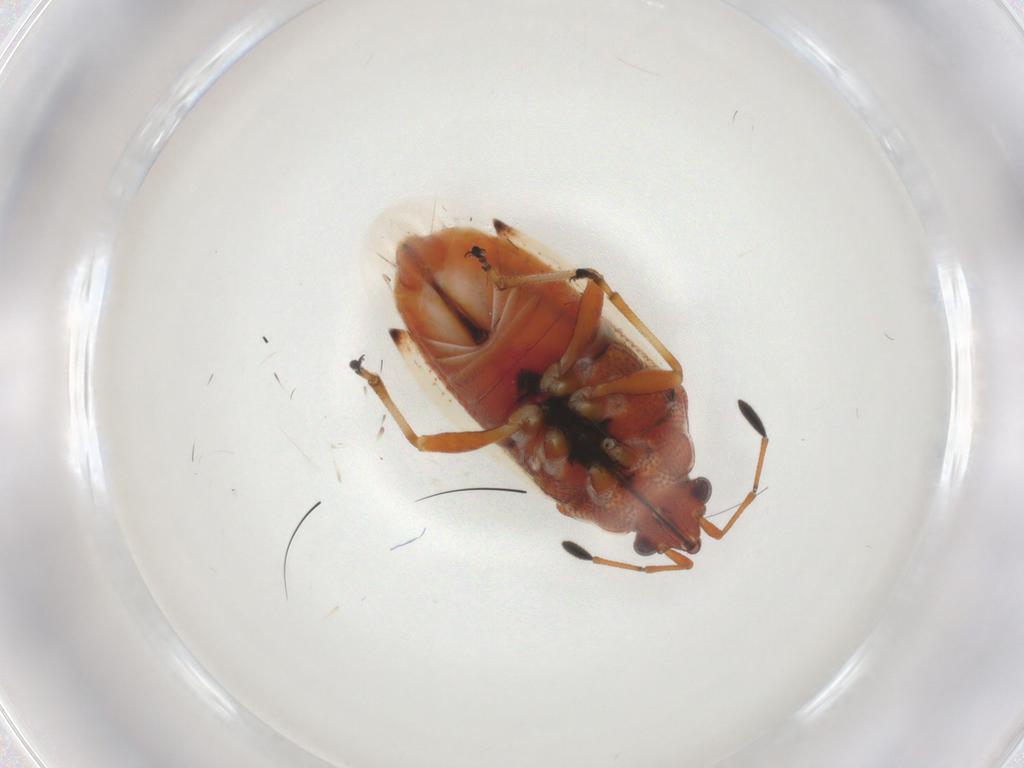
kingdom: Animalia
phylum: Arthropoda
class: Insecta
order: Hemiptera
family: Lygaeidae
